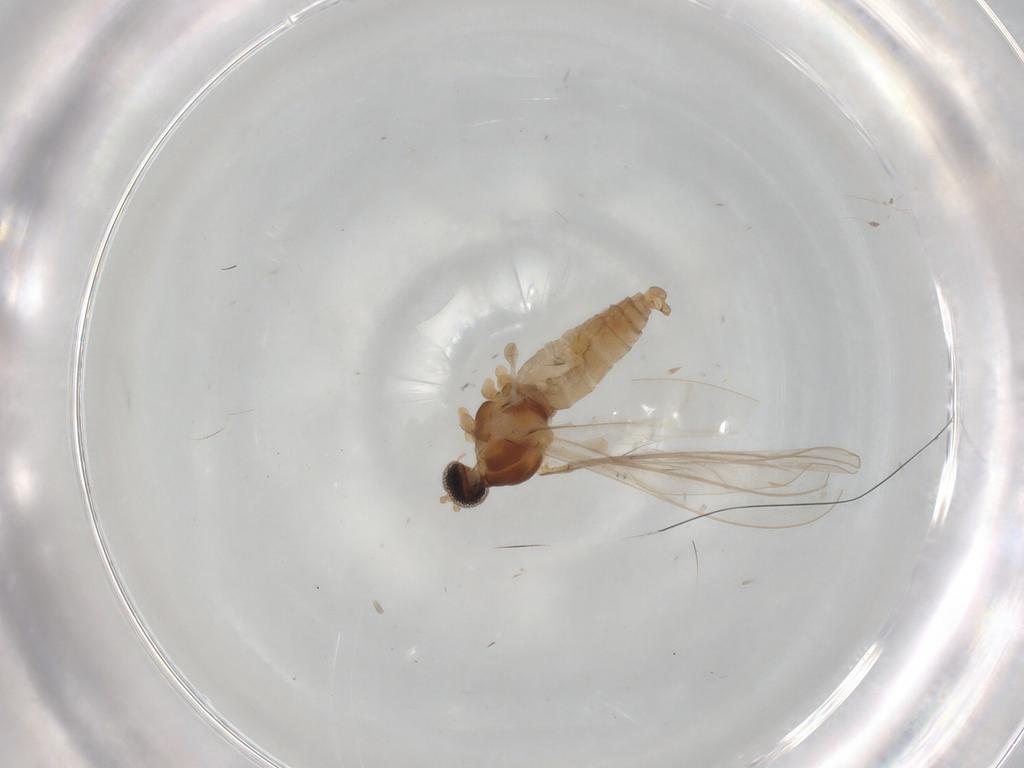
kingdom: Animalia
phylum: Arthropoda
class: Insecta
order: Diptera
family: Cecidomyiidae
